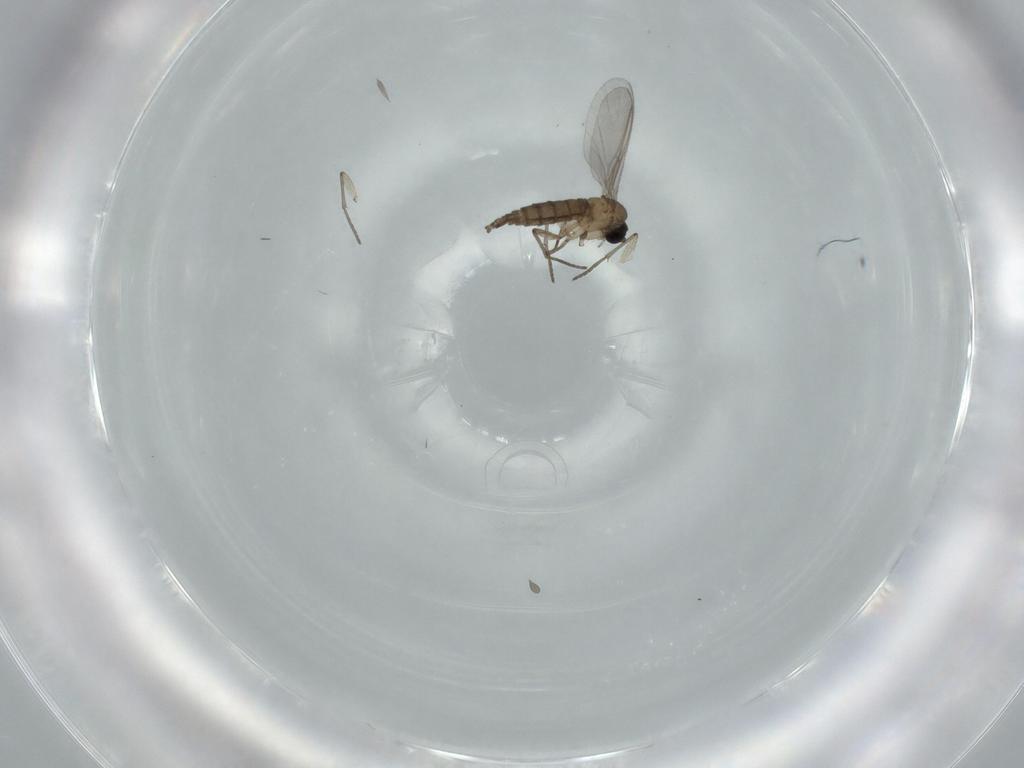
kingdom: Animalia
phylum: Arthropoda
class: Insecta
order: Diptera
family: Sciaridae
